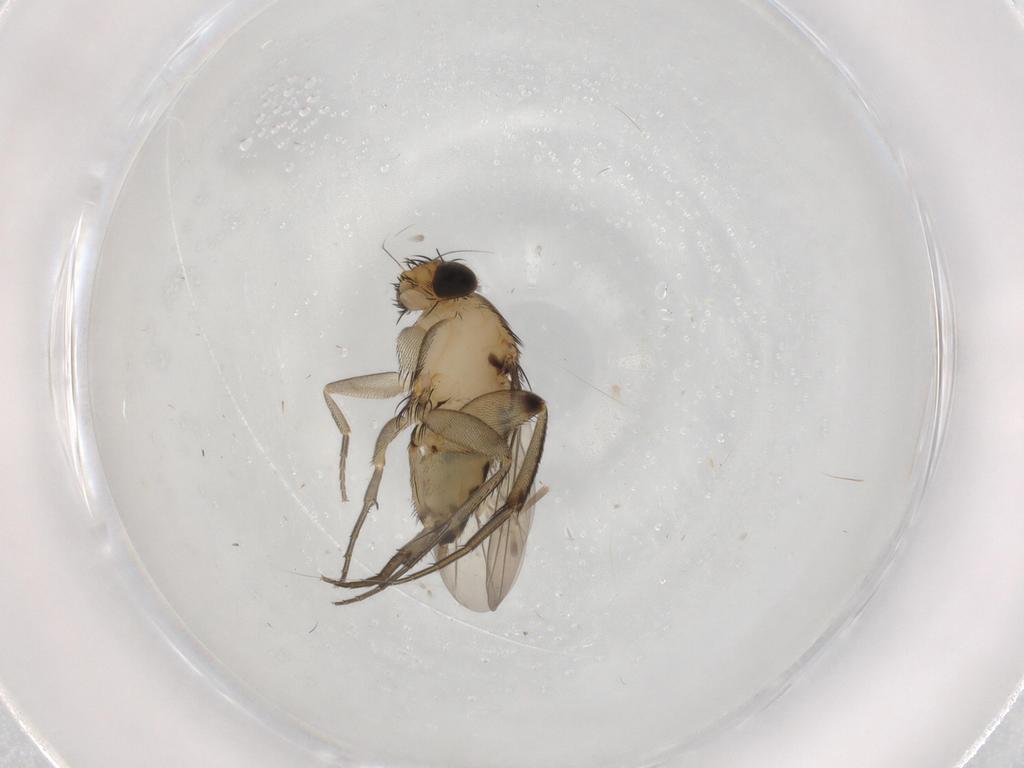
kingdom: Animalia
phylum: Arthropoda
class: Insecta
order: Diptera
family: Phoridae
